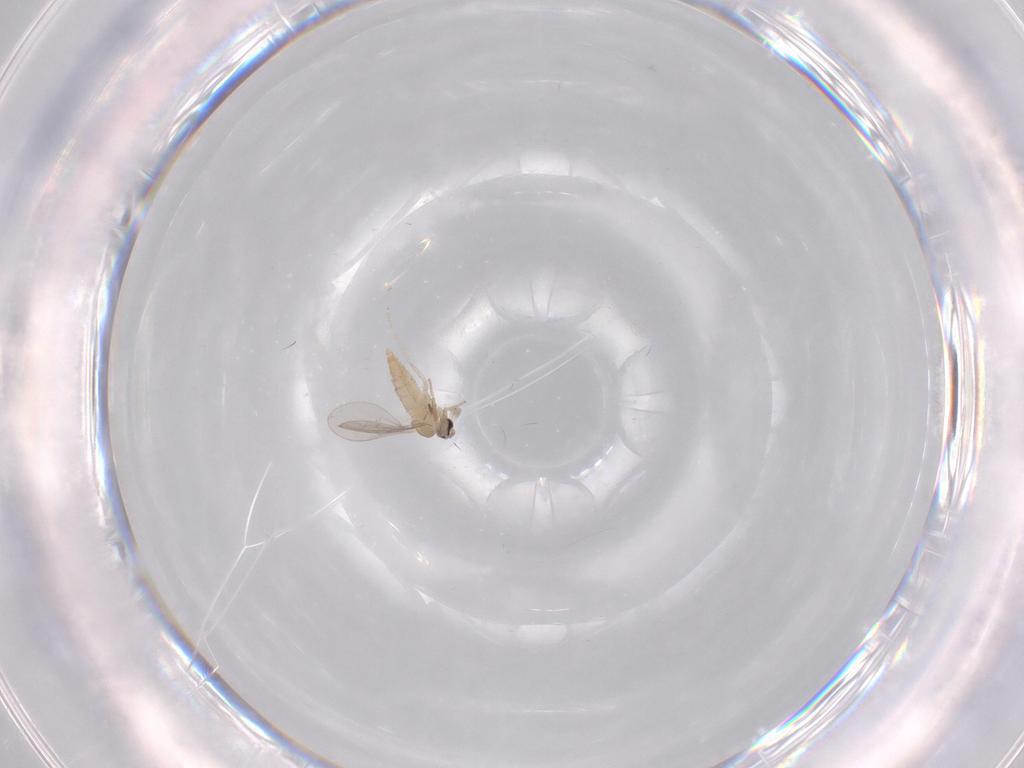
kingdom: Animalia
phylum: Arthropoda
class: Insecta
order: Diptera
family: Cecidomyiidae
